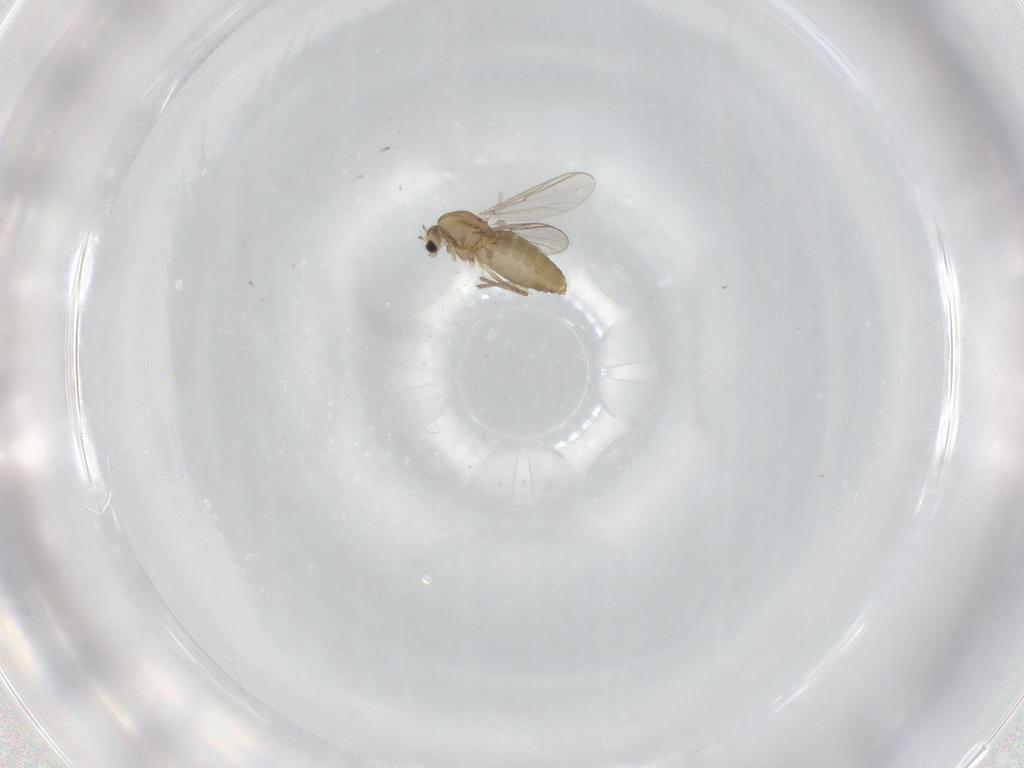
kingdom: Animalia
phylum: Arthropoda
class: Insecta
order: Diptera
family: Chironomidae
